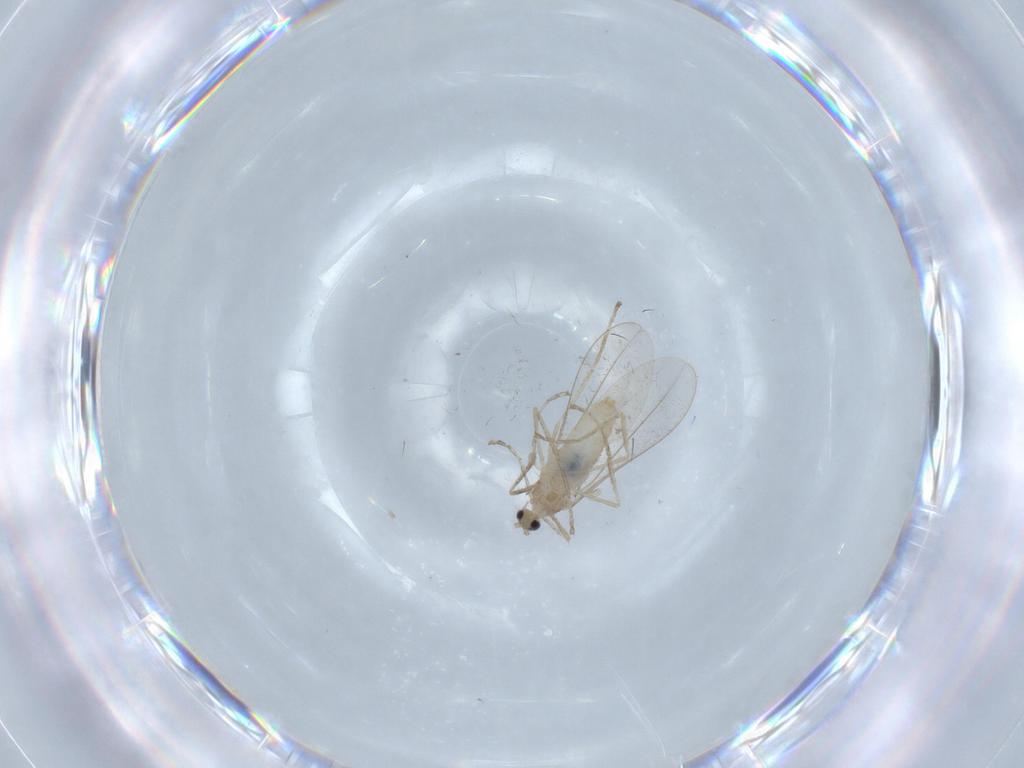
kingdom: Animalia
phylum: Arthropoda
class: Insecta
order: Diptera
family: Cecidomyiidae
